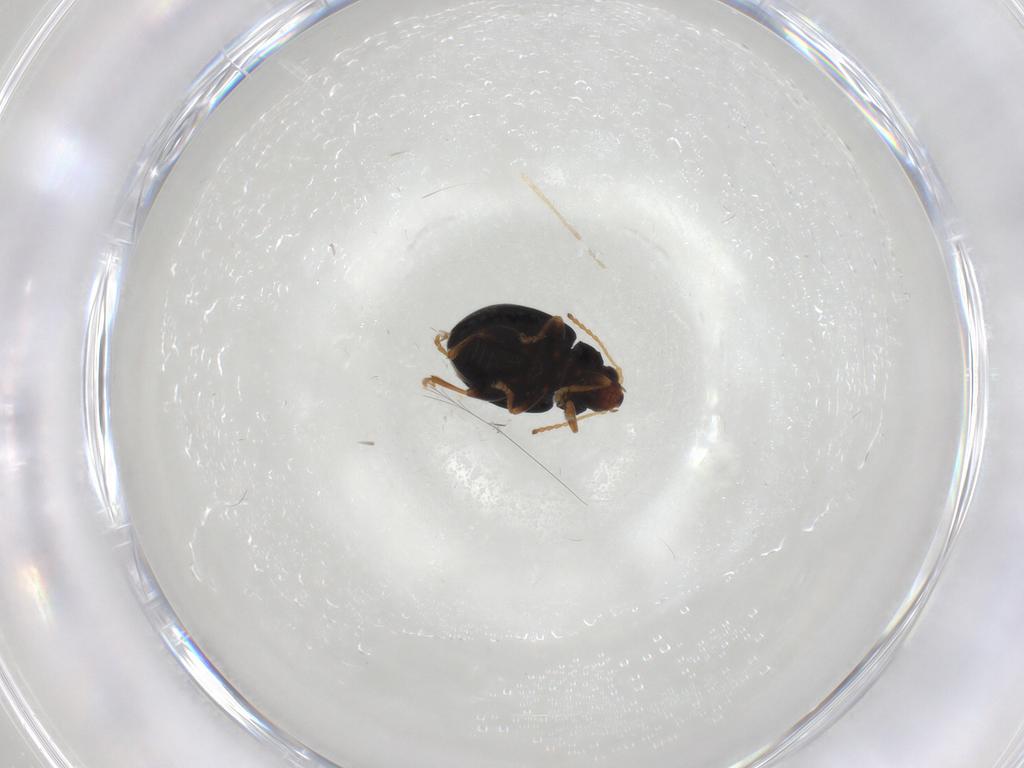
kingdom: Animalia
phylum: Arthropoda
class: Insecta
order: Coleoptera
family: Chrysomelidae
